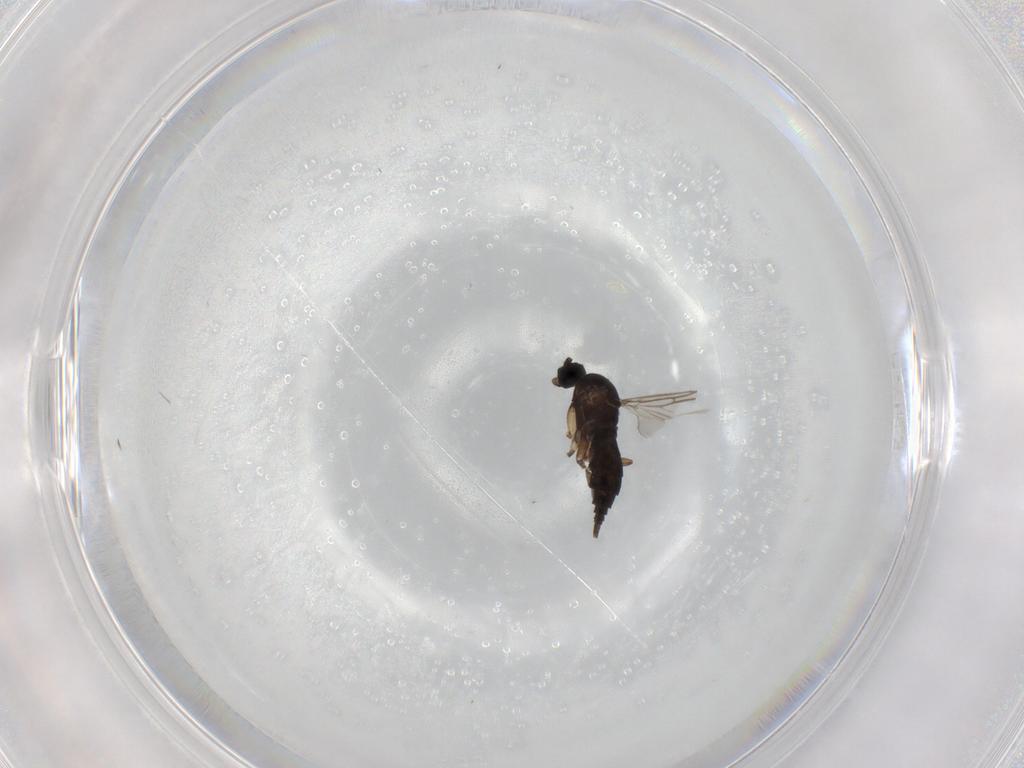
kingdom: Animalia
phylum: Arthropoda
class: Insecta
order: Diptera
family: Sciaridae
